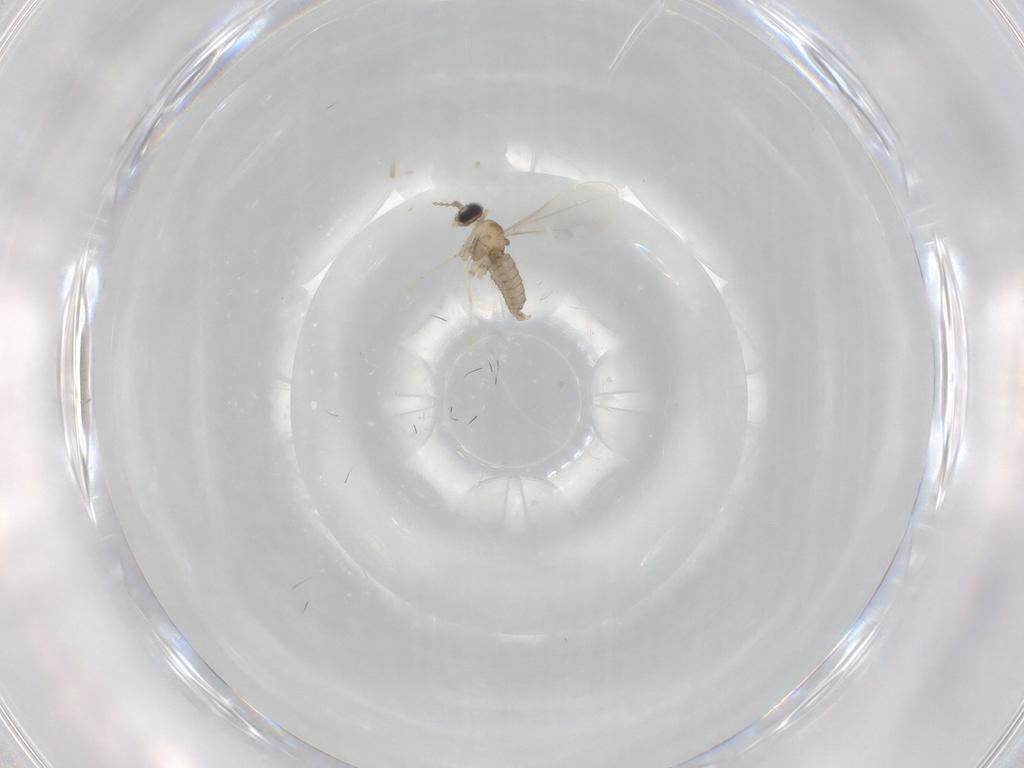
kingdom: Animalia
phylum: Arthropoda
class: Insecta
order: Diptera
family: Cecidomyiidae
